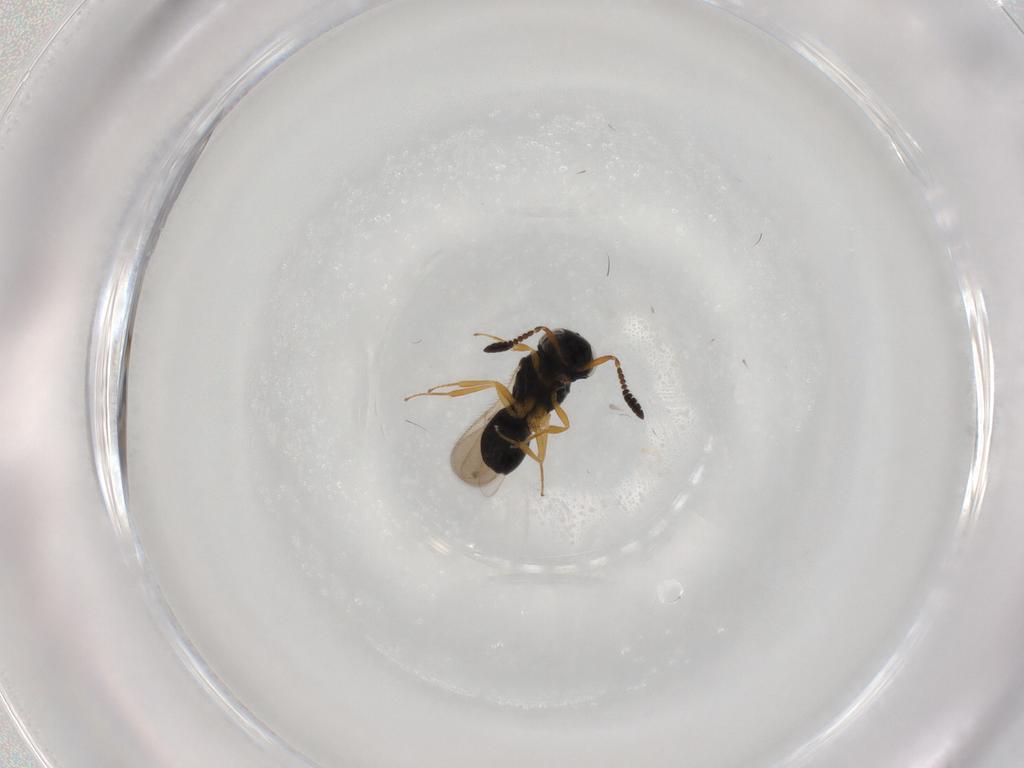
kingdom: Animalia
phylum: Arthropoda
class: Insecta
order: Hymenoptera
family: Scelionidae
